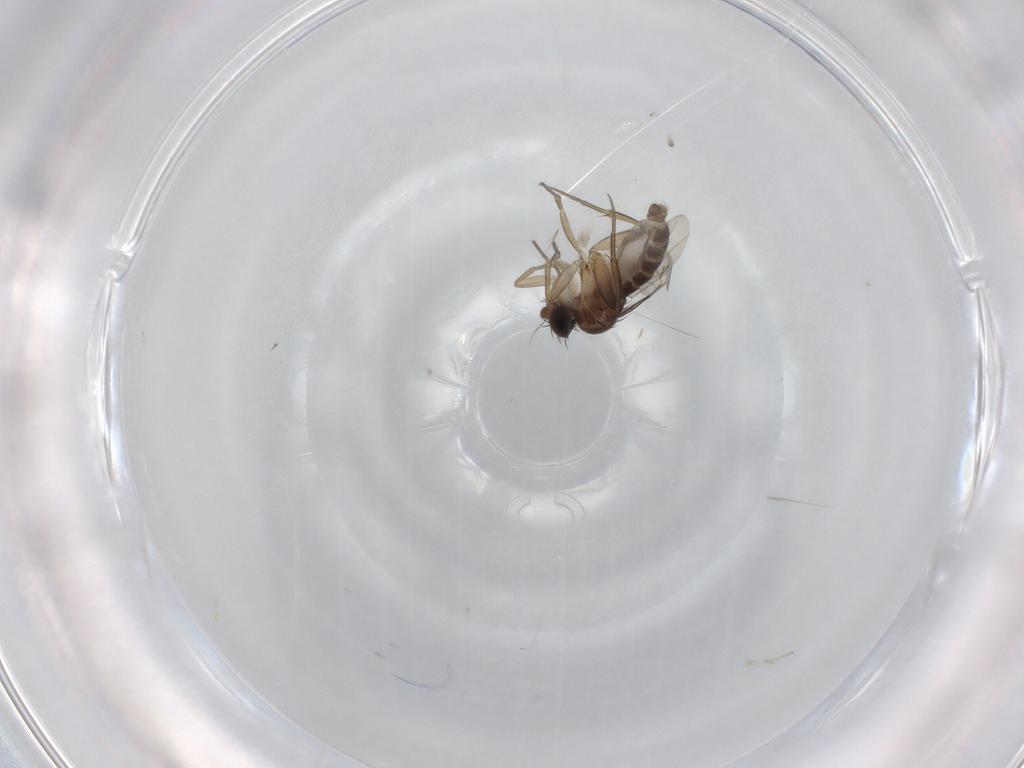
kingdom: Animalia
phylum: Arthropoda
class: Insecta
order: Diptera
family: Phoridae
